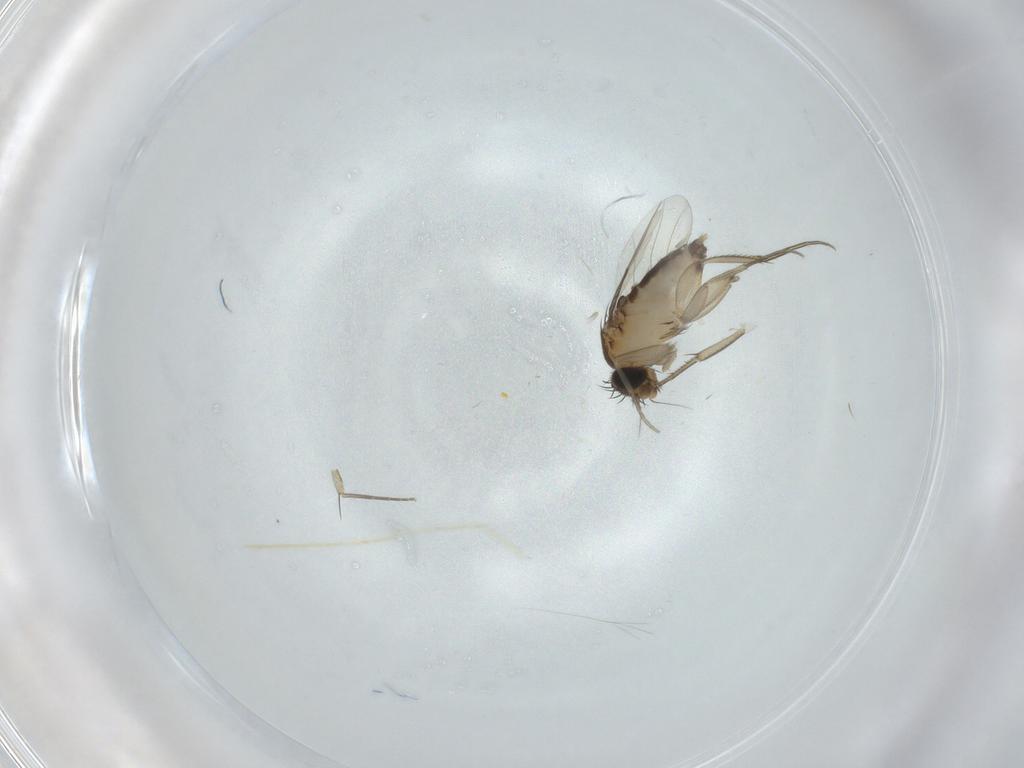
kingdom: Animalia
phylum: Arthropoda
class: Insecta
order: Diptera
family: Phoridae
